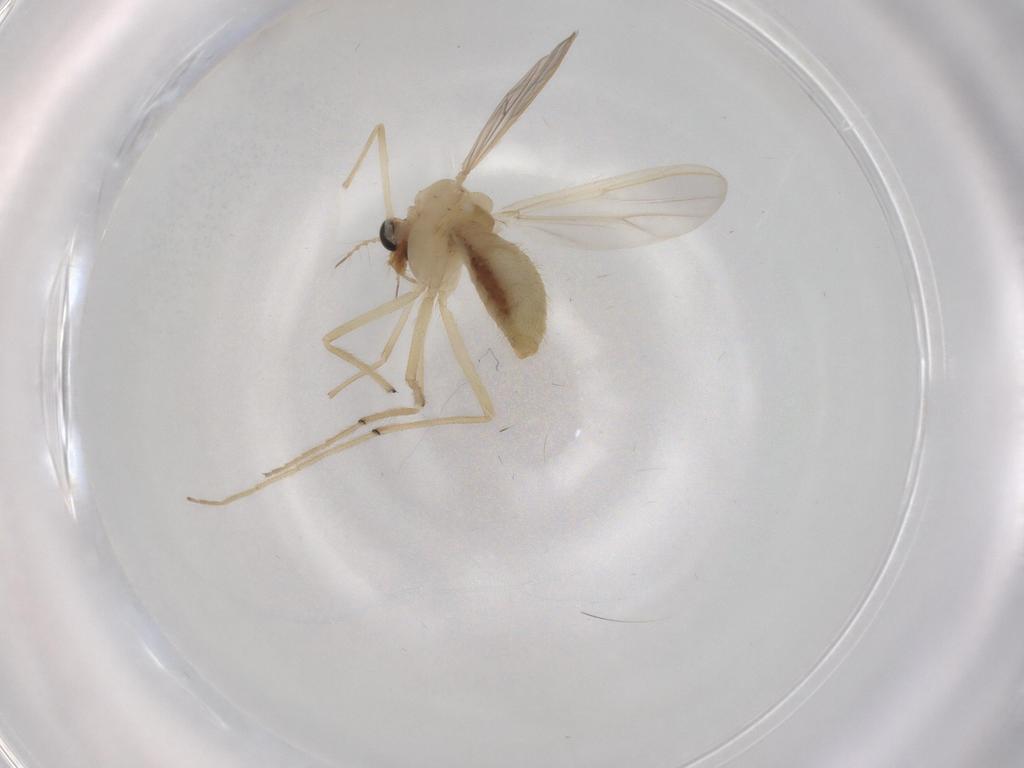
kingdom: Animalia
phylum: Arthropoda
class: Insecta
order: Diptera
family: Chironomidae
